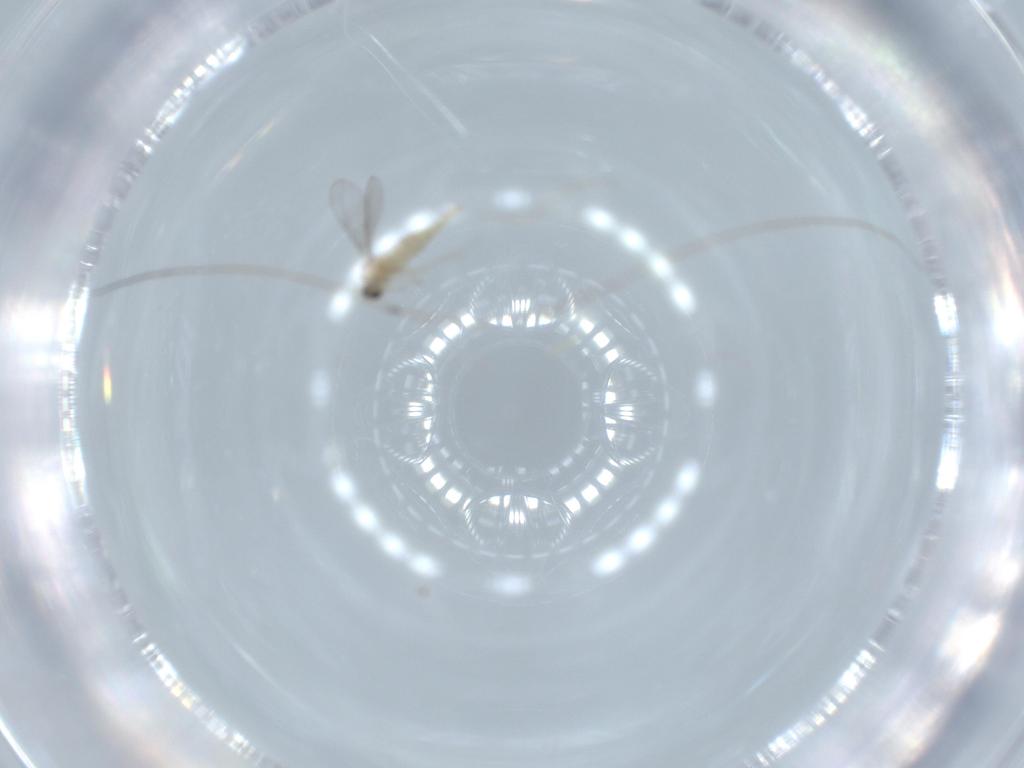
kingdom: Animalia
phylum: Arthropoda
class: Insecta
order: Diptera
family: Cecidomyiidae
